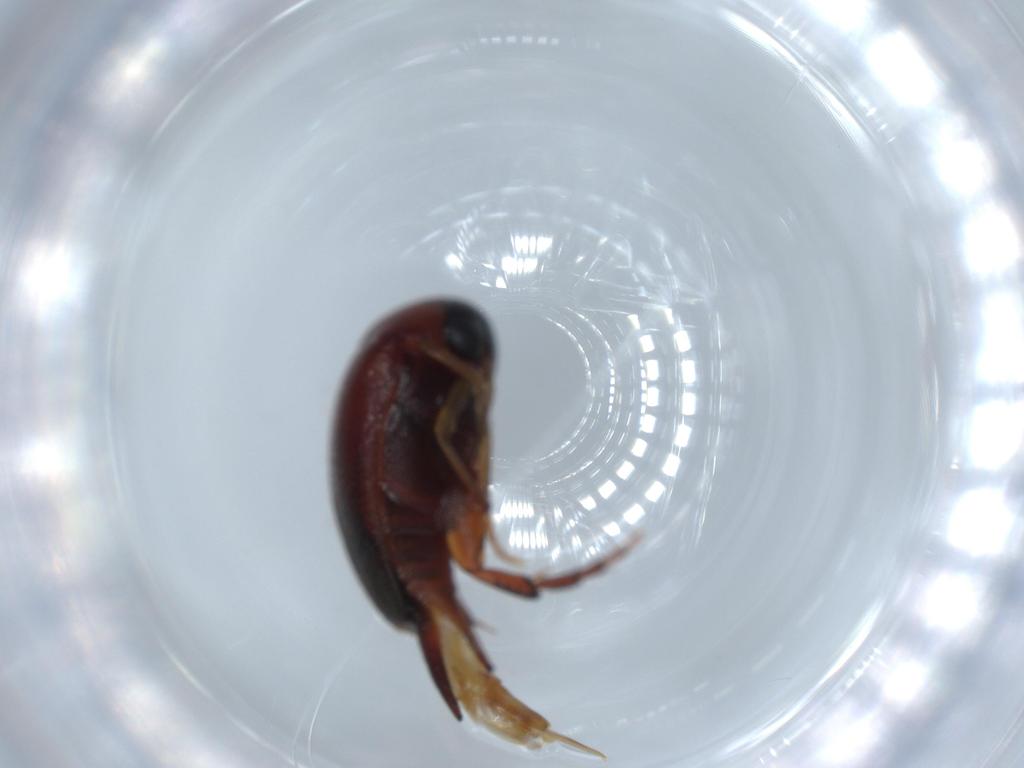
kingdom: Animalia
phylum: Arthropoda
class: Insecta
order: Coleoptera
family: Mordellidae
